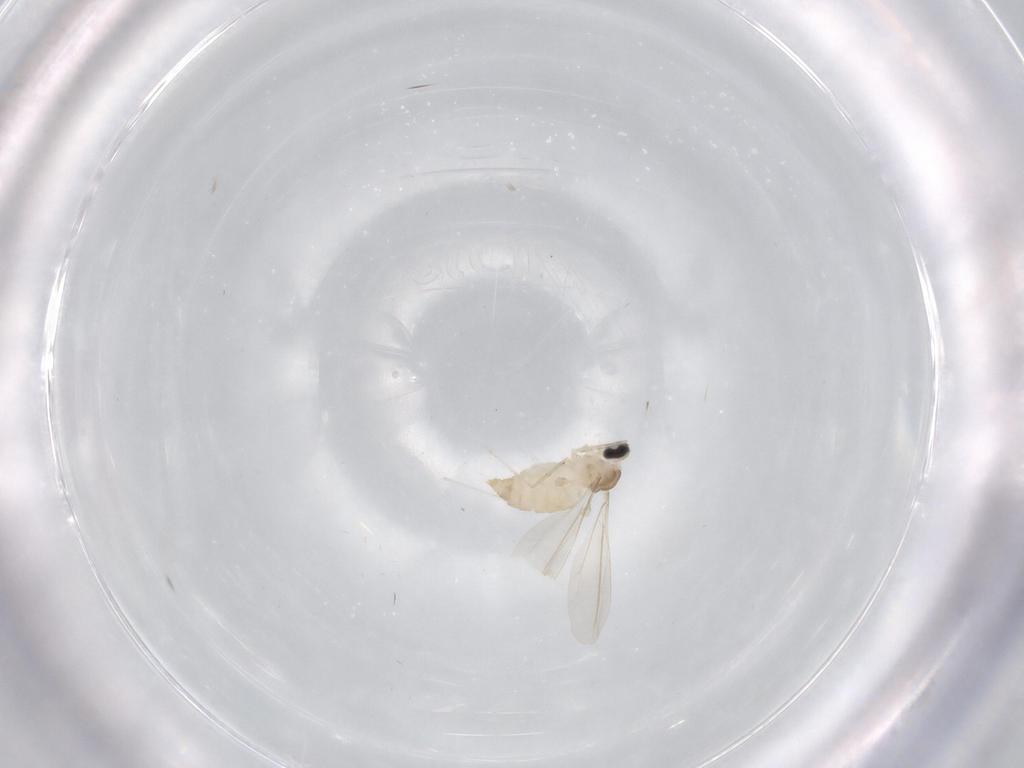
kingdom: Animalia
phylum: Arthropoda
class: Insecta
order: Diptera
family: Cecidomyiidae
